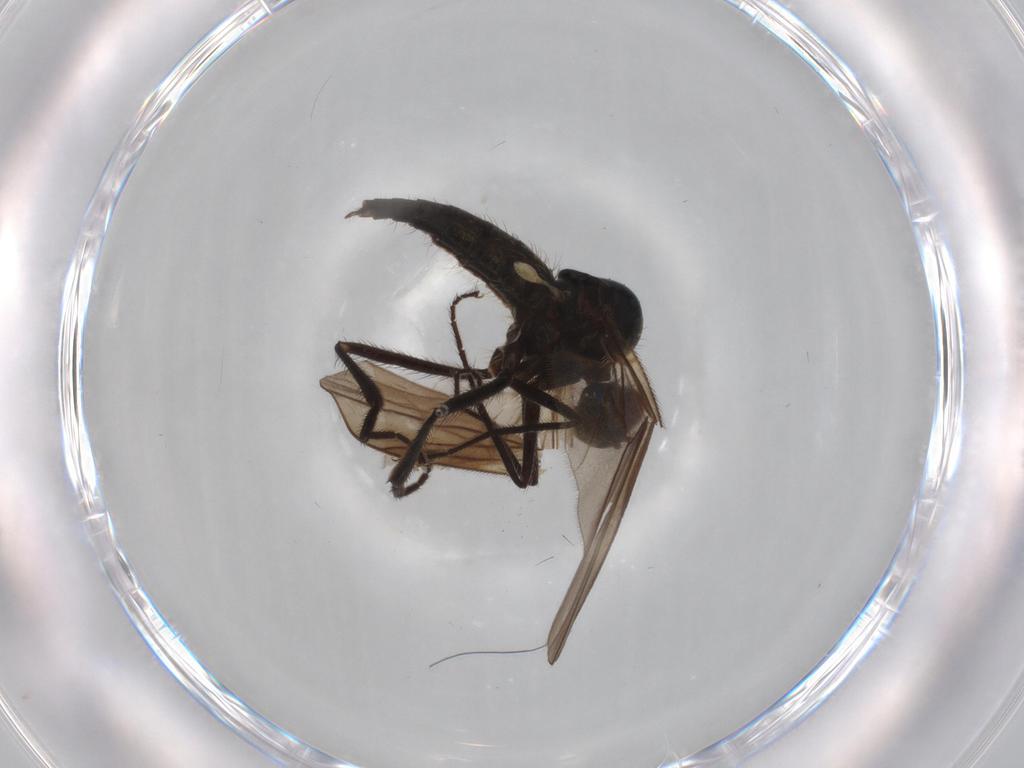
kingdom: Animalia
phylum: Arthropoda
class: Insecta
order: Diptera
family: Hybotidae
